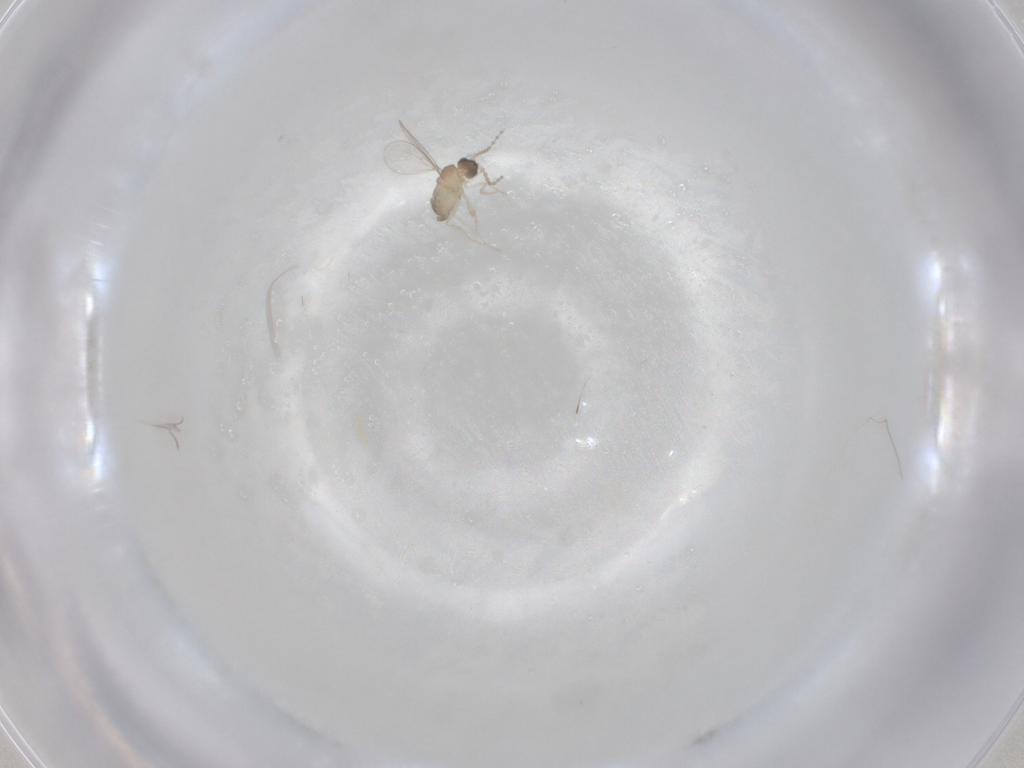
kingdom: Animalia
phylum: Arthropoda
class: Insecta
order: Diptera
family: Cecidomyiidae
